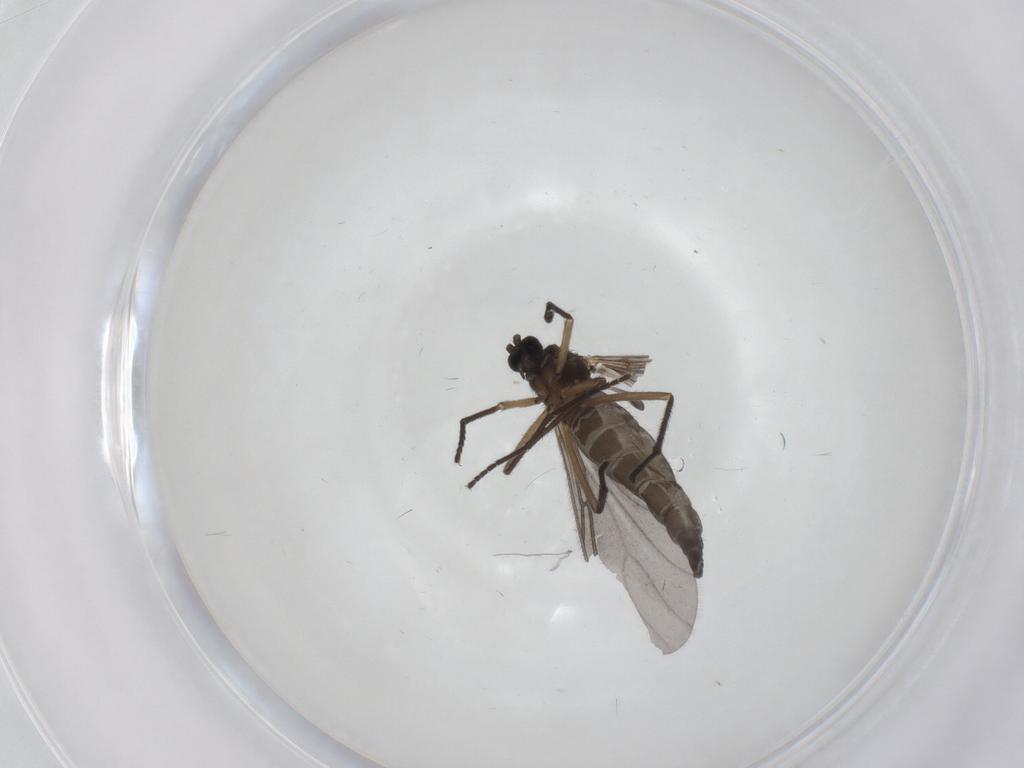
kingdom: Animalia
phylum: Arthropoda
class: Insecta
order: Diptera
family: Sciaridae
